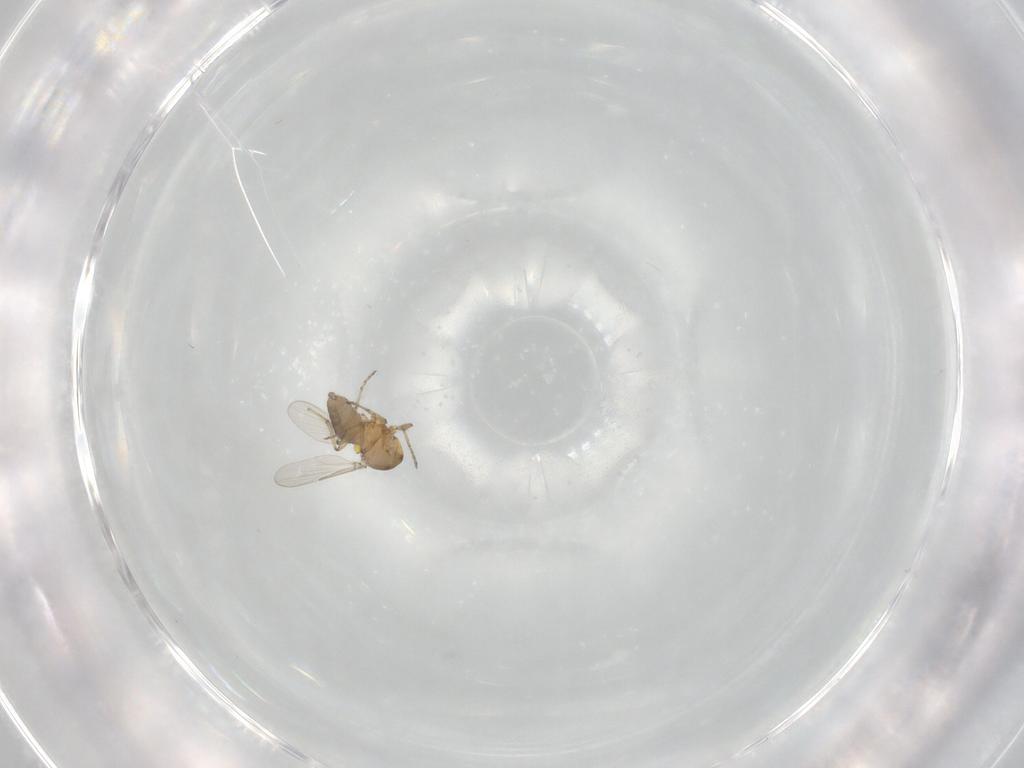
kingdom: Animalia
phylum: Arthropoda
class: Insecta
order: Diptera
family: Ceratopogonidae
